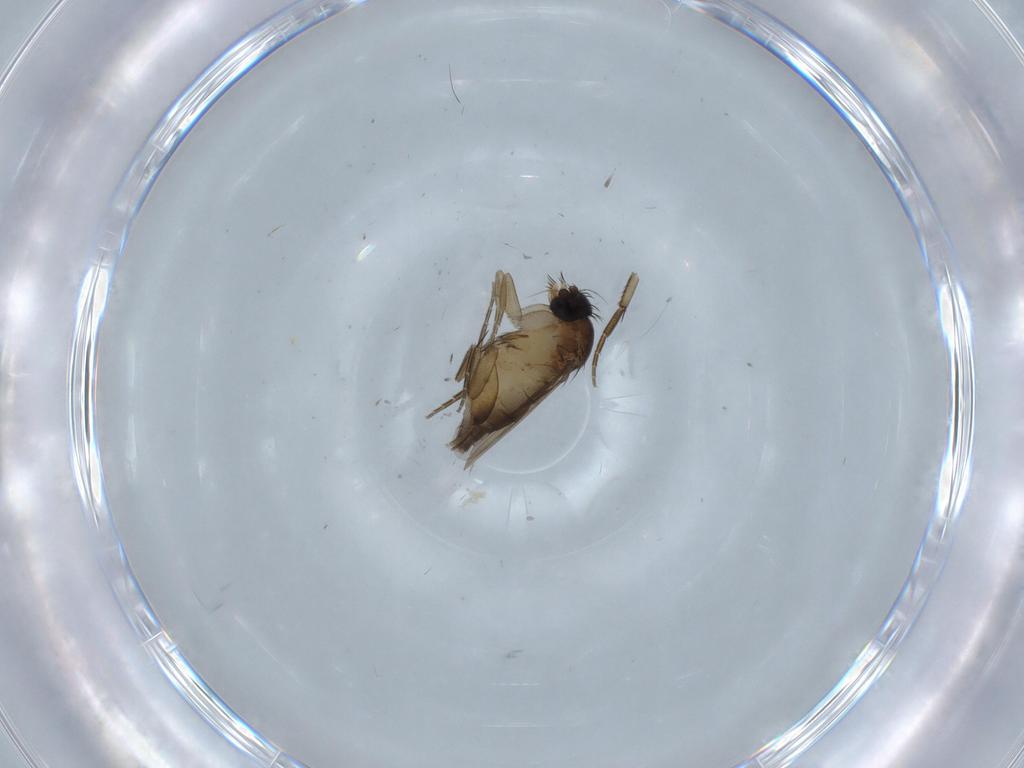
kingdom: Animalia
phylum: Arthropoda
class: Insecta
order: Diptera
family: Phoridae
